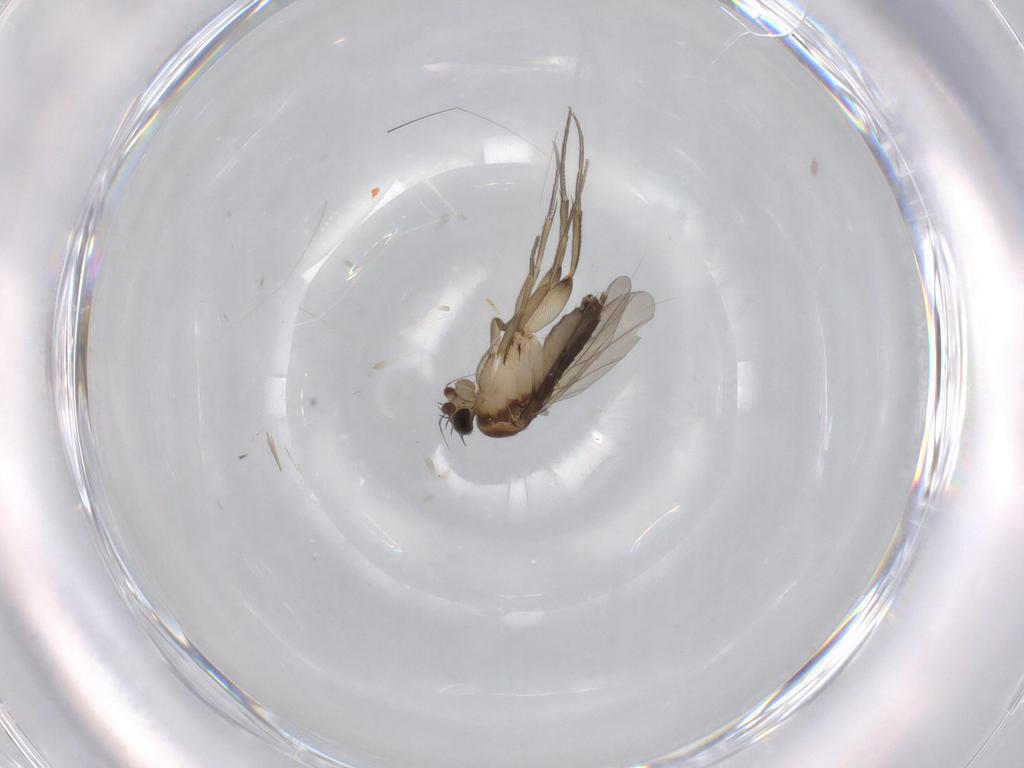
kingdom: Animalia
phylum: Arthropoda
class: Insecta
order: Diptera
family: Phoridae
